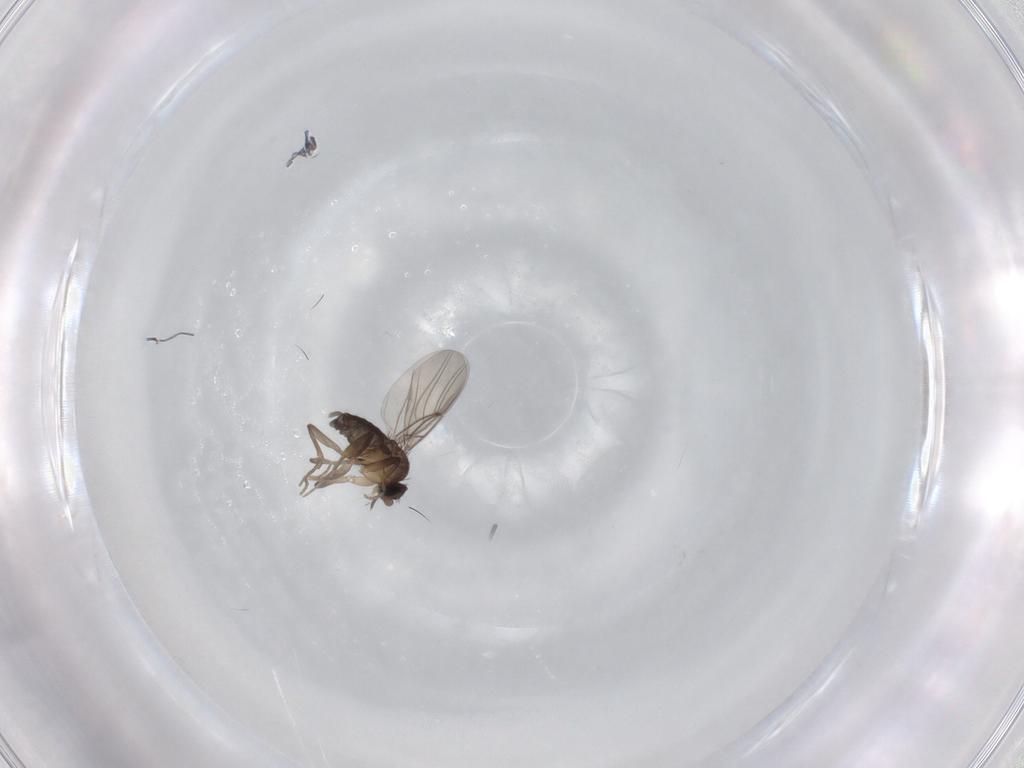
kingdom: Animalia
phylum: Arthropoda
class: Insecta
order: Diptera
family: Phoridae
